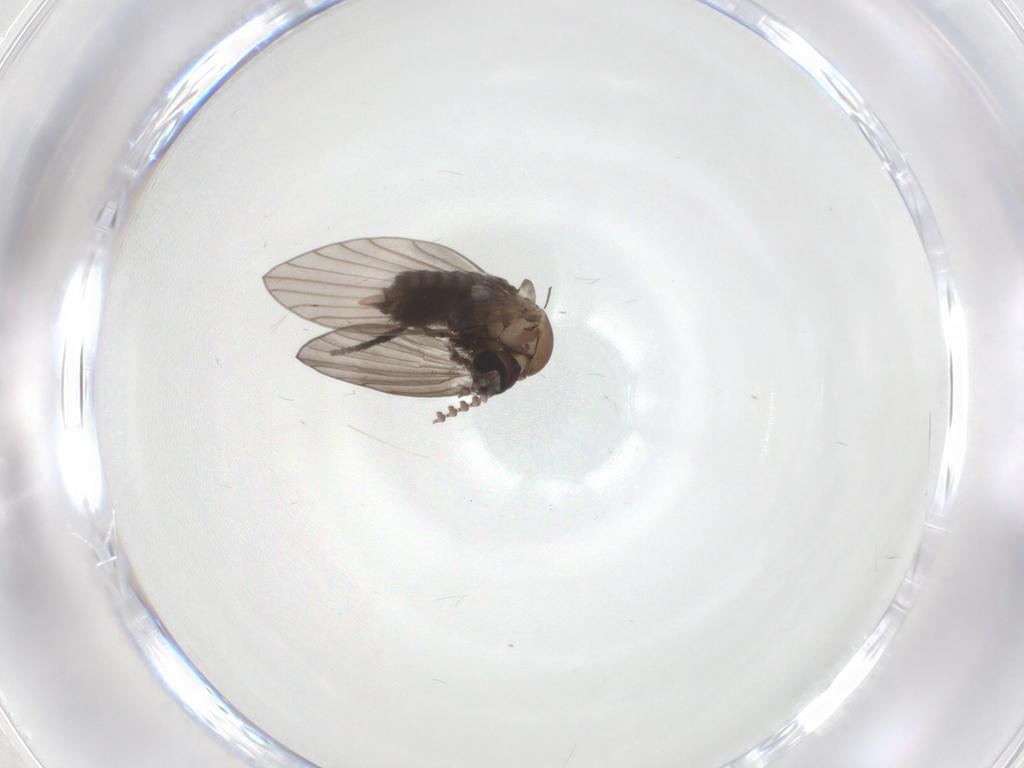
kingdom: Animalia
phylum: Arthropoda
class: Insecta
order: Diptera
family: Psychodidae
